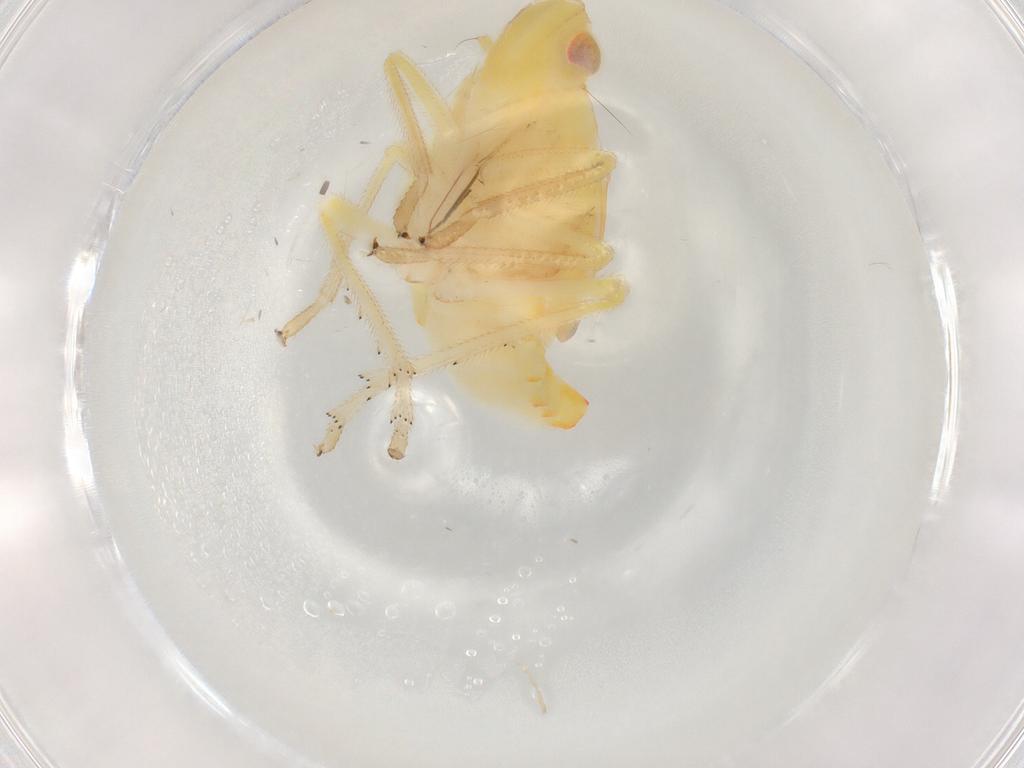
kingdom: Animalia
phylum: Arthropoda
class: Insecta
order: Hemiptera
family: Tropiduchidae
